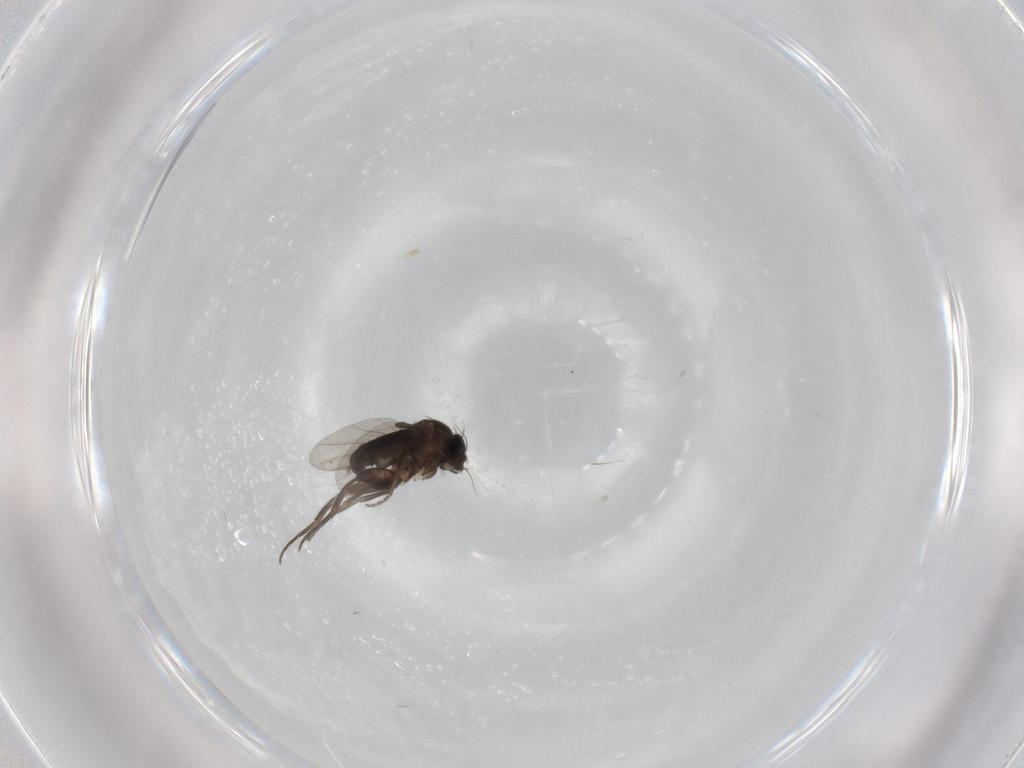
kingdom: Animalia
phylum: Arthropoda
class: Insecta
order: Diptera
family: Phoridae
